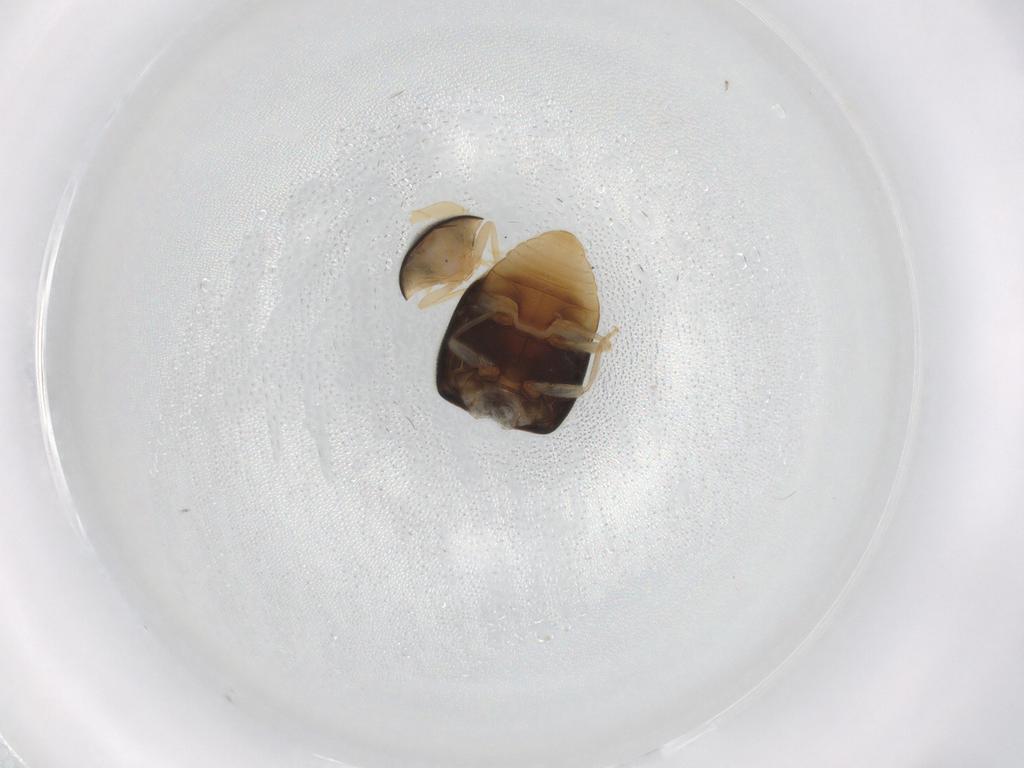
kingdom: Animalia
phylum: Arthropoda
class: Insecta
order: Coleoptera
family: Coccinellidae
